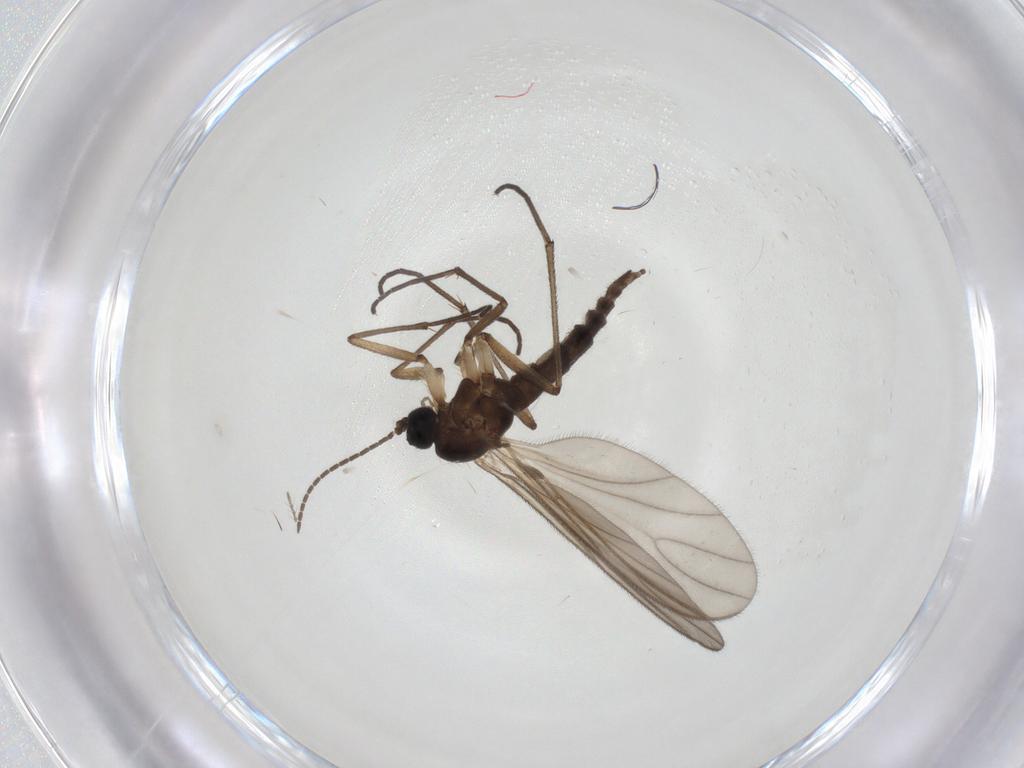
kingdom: Animalia
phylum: Arthropoda
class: Insecta
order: Diptera
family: Sciaridae
